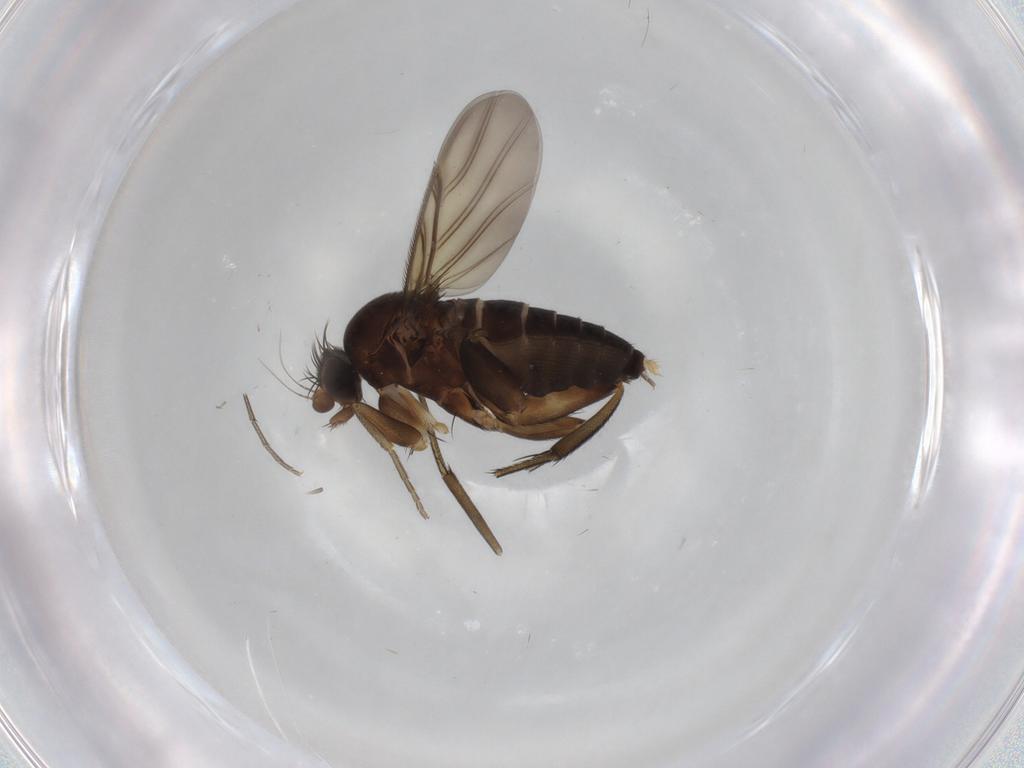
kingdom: Animalia
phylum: Arthropoda
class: Insecta
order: Diptera
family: Phoridae
